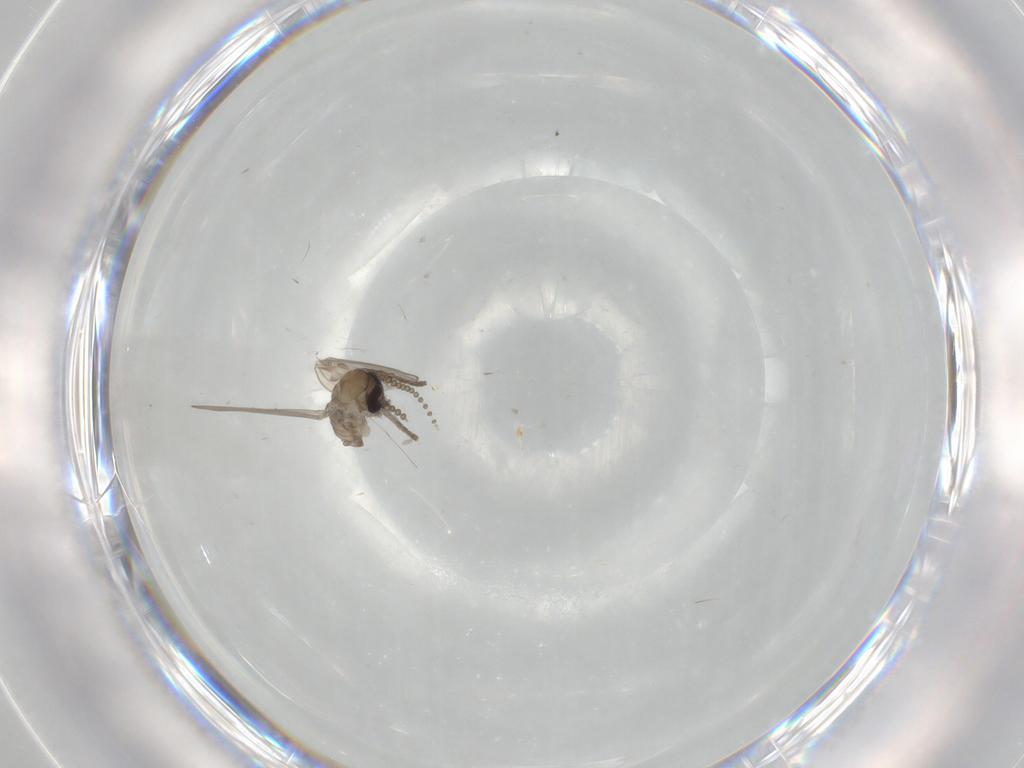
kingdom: Animalia
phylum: Arthropoda
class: Insecta
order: Diptera
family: Psychodidae
